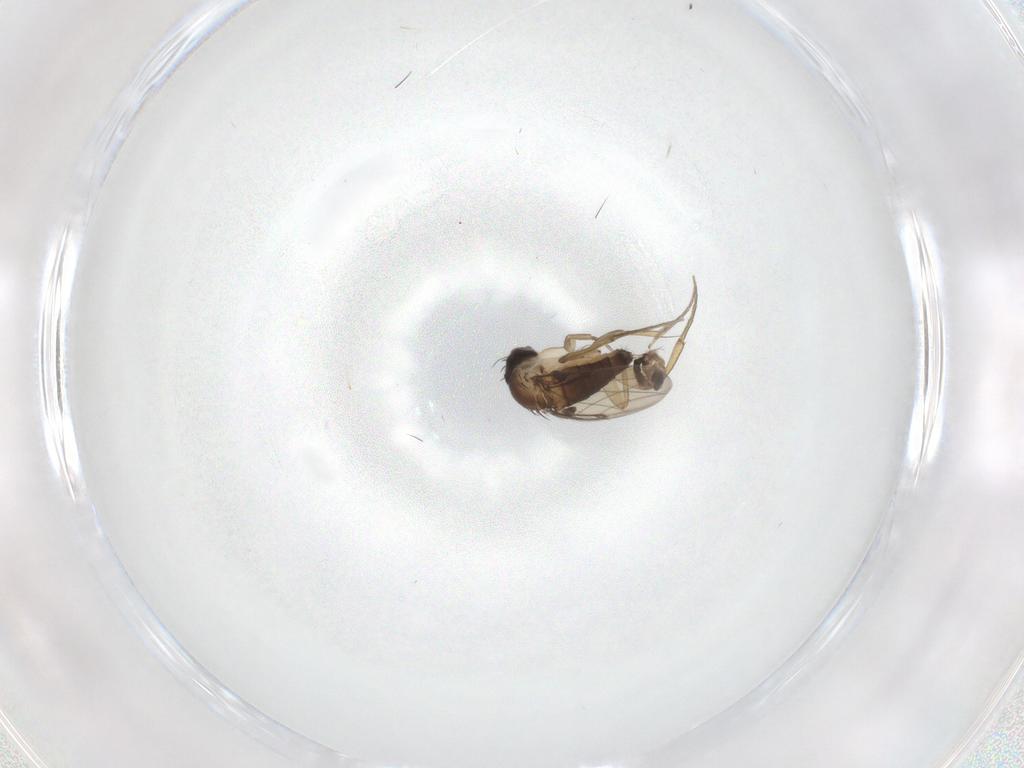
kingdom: Animalia
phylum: Arthropoda
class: Insecta
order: Diptera
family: Phoridae
